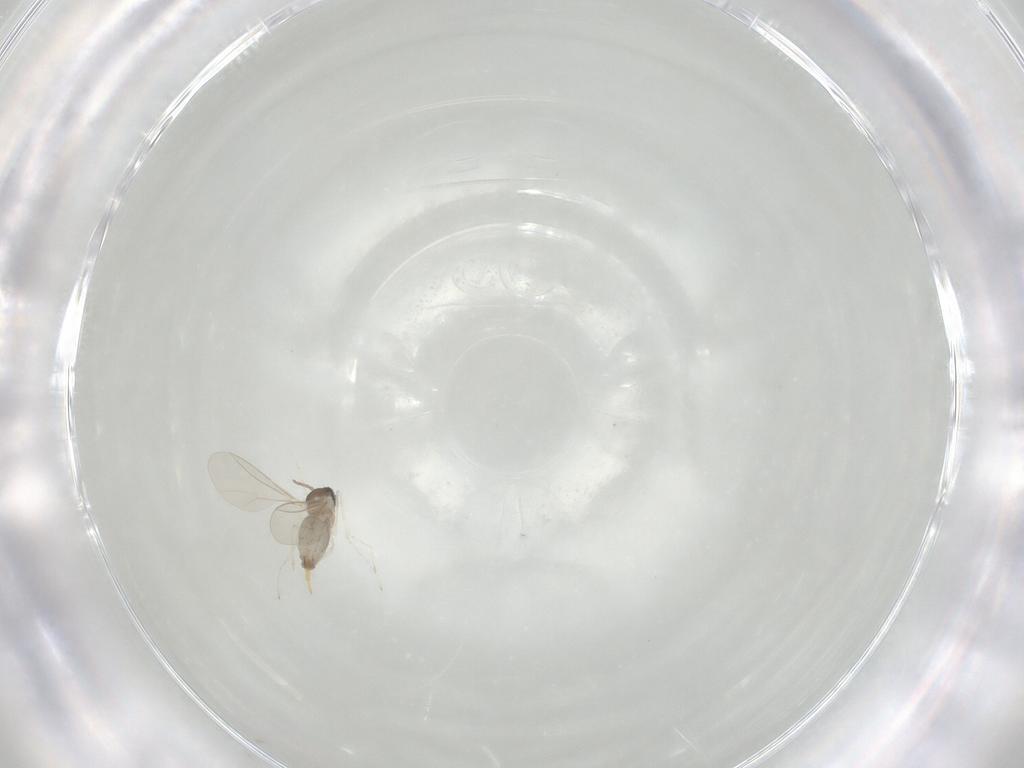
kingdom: Animalia
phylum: Arthropoda
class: Insecta
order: Diptera
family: Cecidomyiidae
